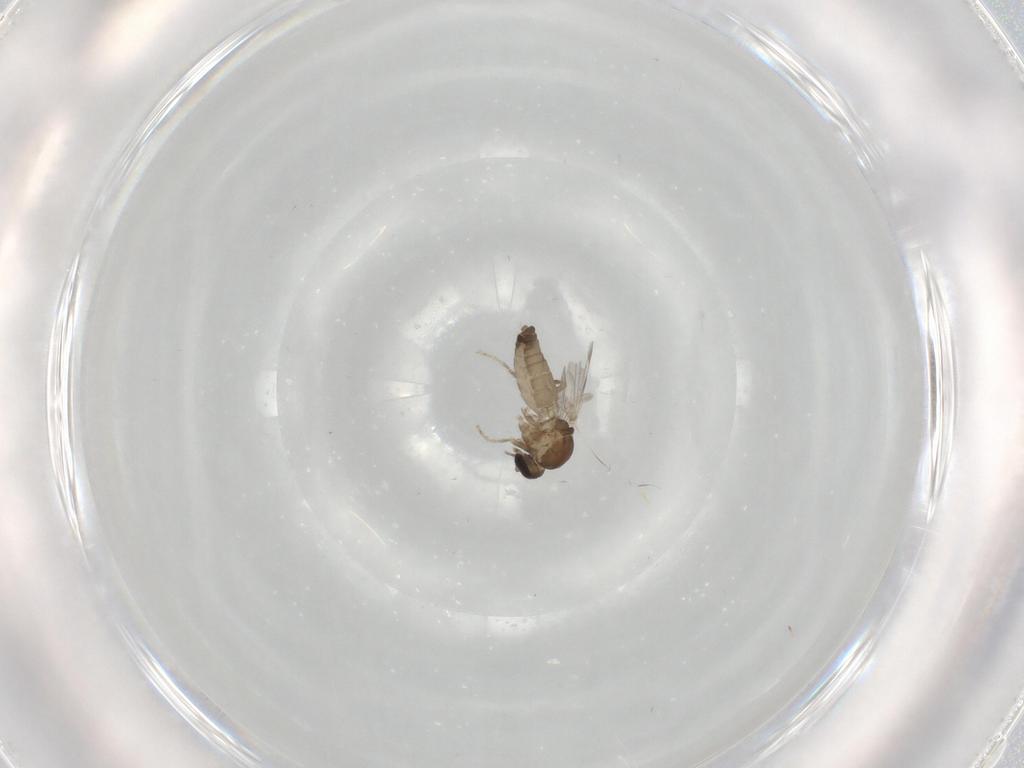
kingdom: Animalia
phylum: Arthropoda
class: Insecta
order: Diptera
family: Ceratopogonidae
